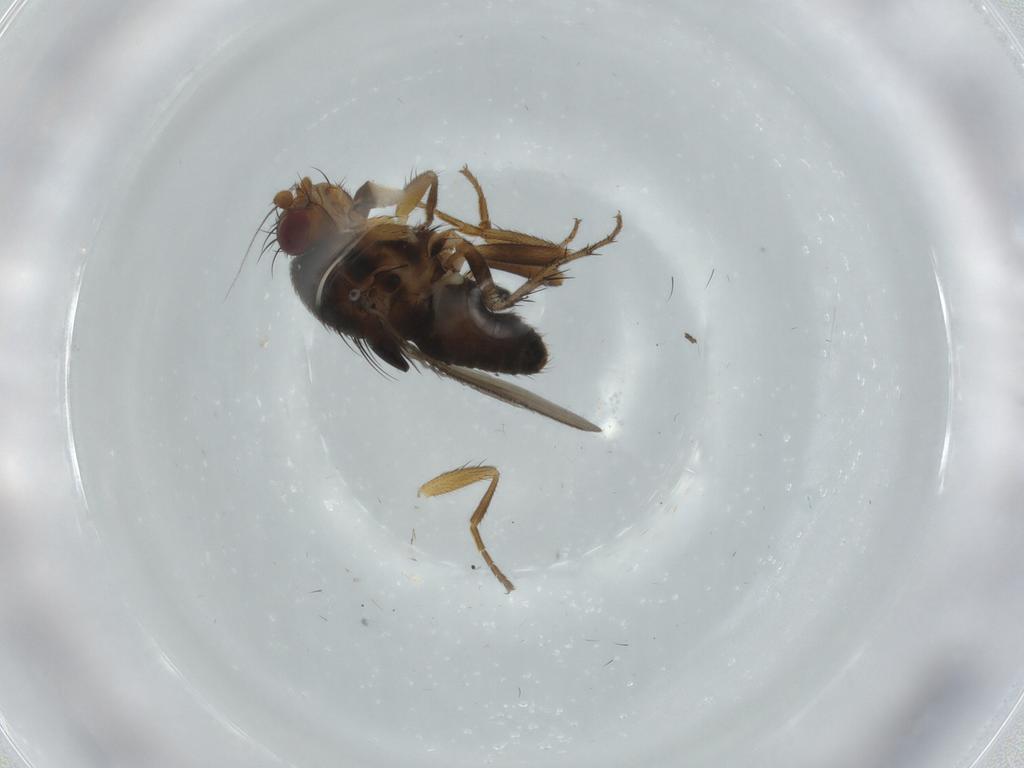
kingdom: Animalia
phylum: Arthropoda
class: Insecta
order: Diptera
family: Sphaeroceridae
